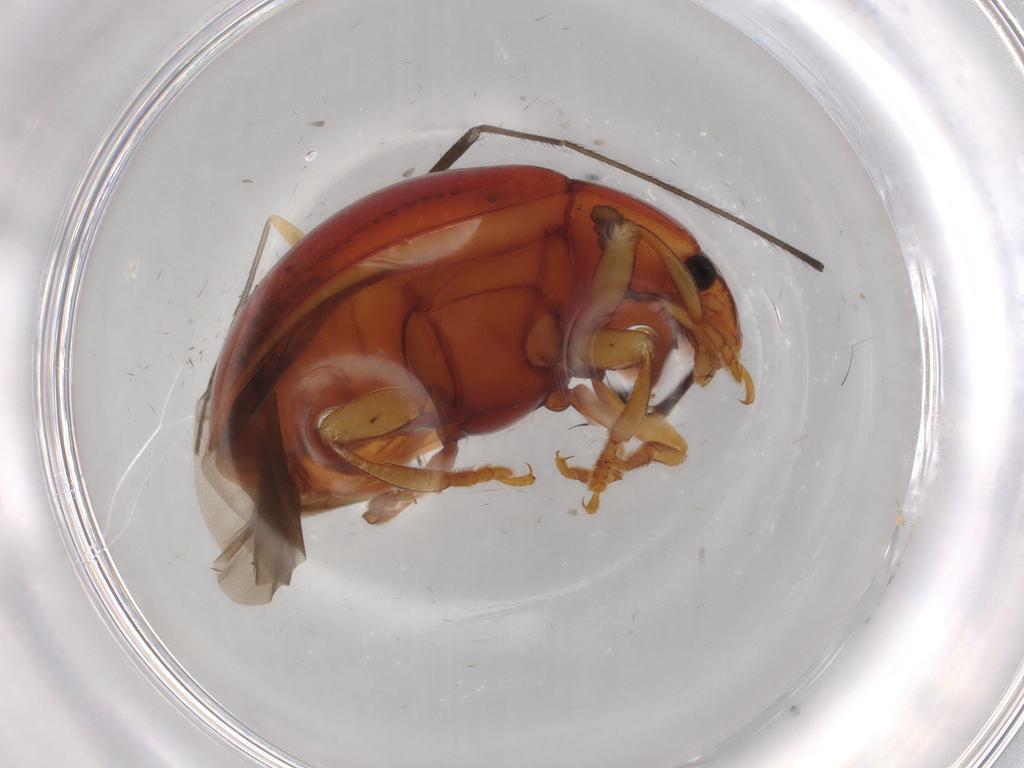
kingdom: Animalia
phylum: Arthropoda
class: Insecta
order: Coleoptera
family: Erotylidae
